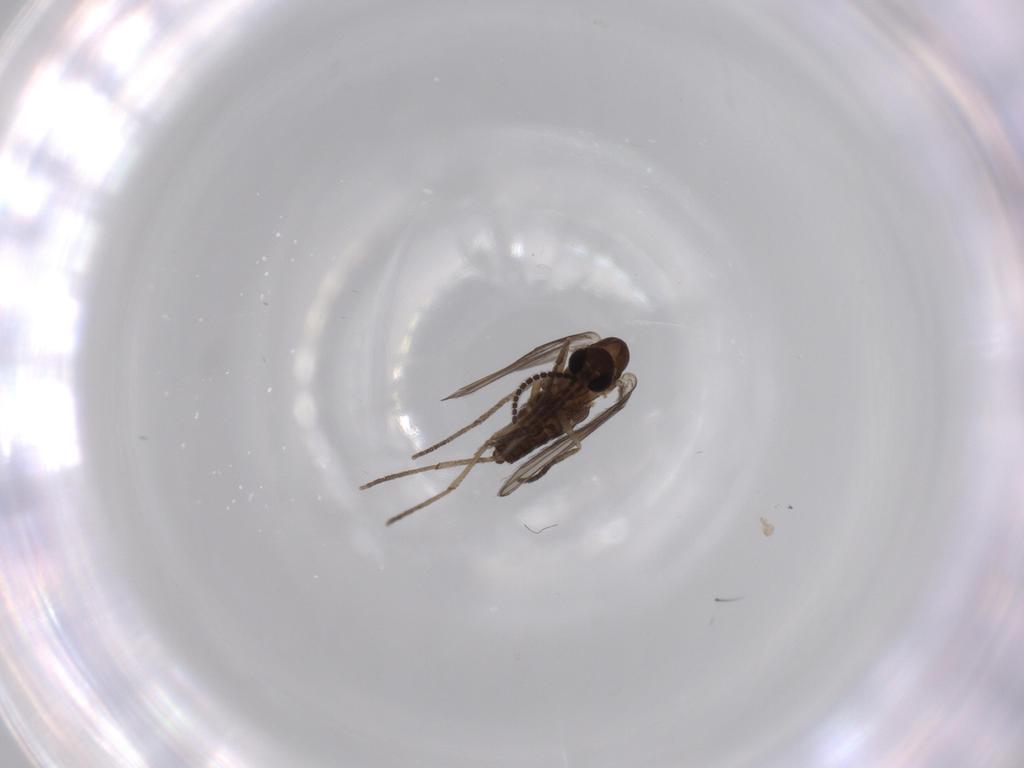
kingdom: Animalia
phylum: Arthropoda
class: Insecta
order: Diptera
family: Sciaridae
